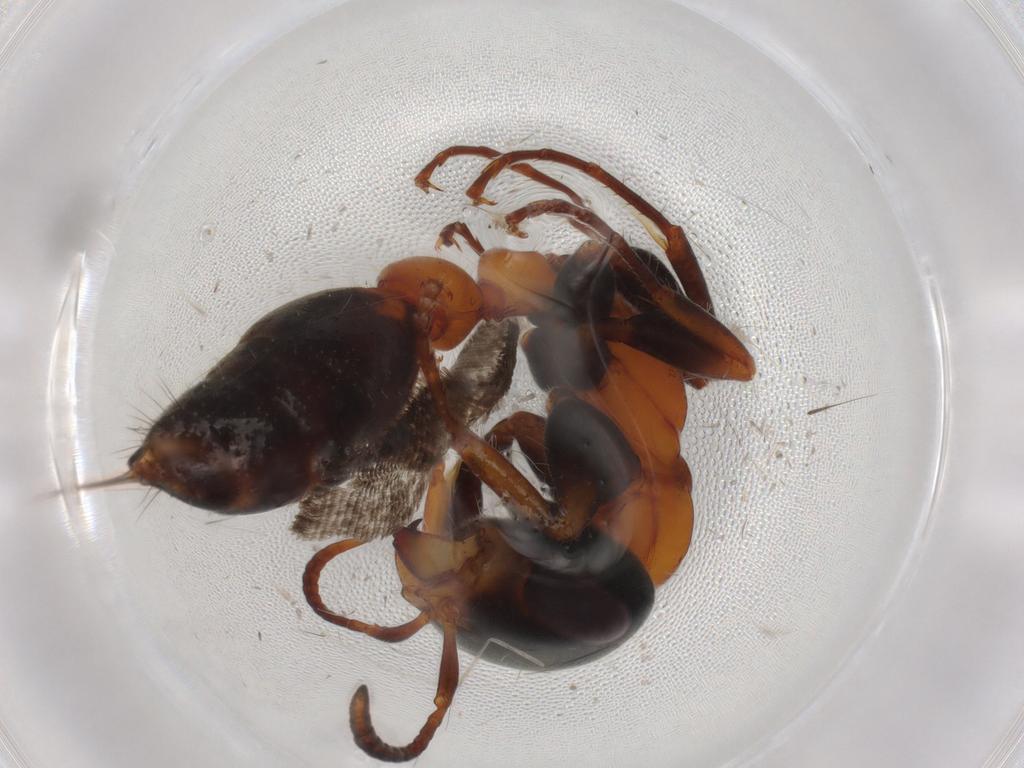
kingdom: Animalia
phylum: Arthropoda
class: Insecta
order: Hymenoptera
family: Formicidae
